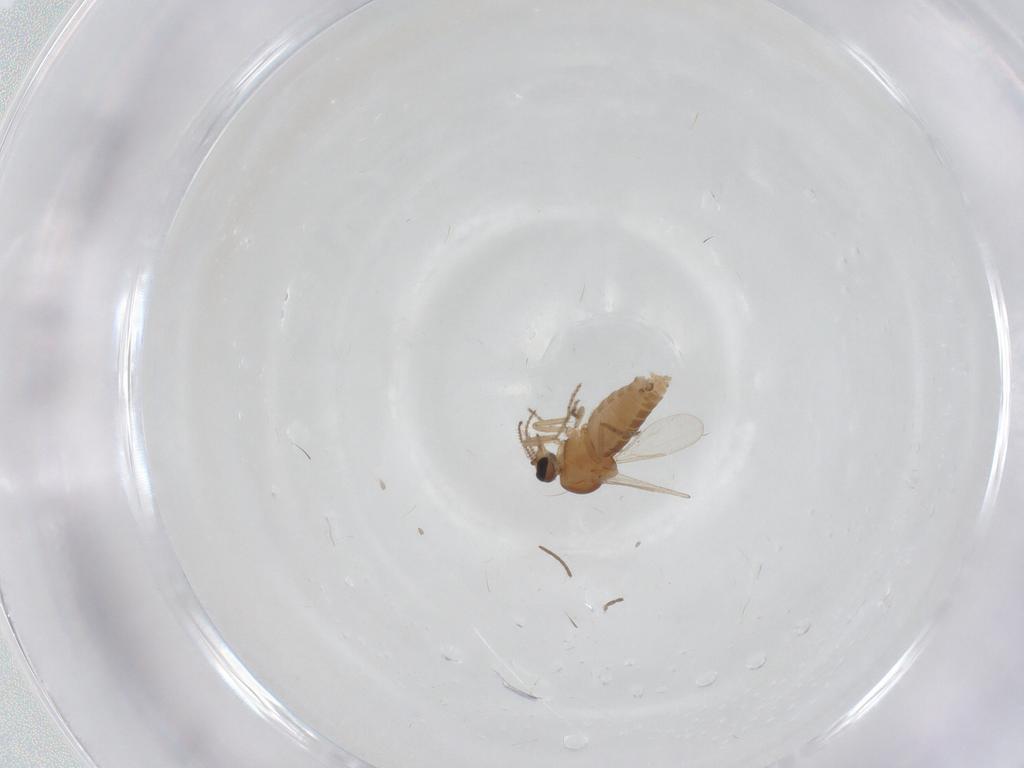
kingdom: Animalia
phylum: Arthropoda
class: Insecta
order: Diptera
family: Ceratopogonidae
